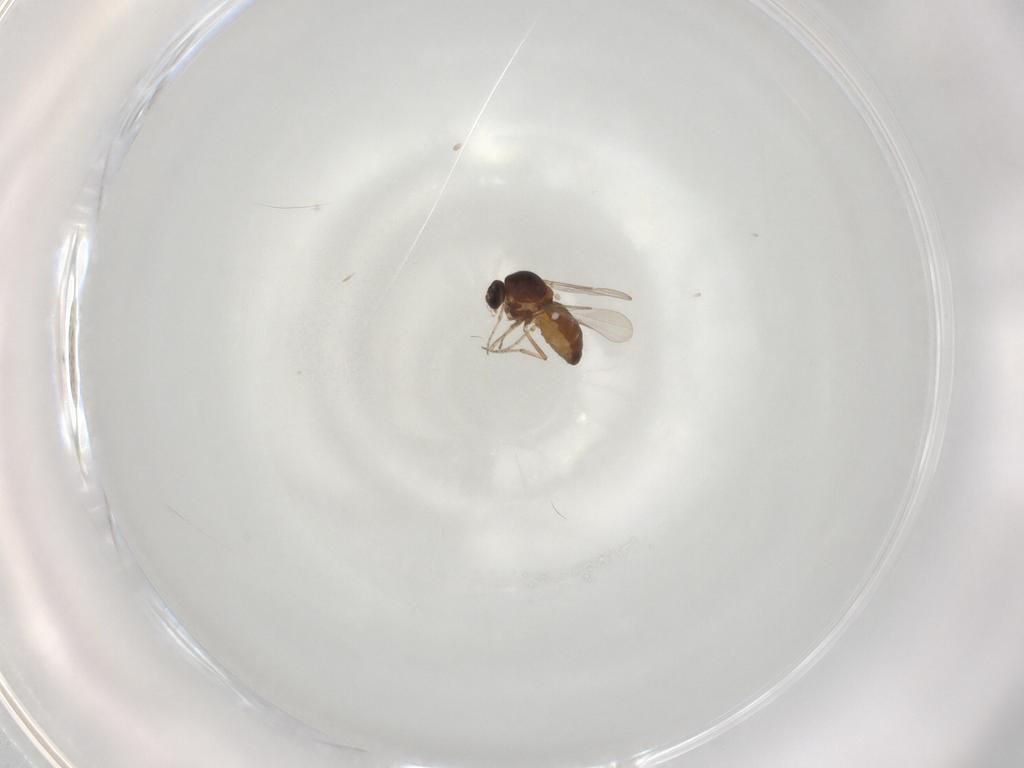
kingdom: Animalia
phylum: Arthropoda
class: Insecta
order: Diptera
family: Ceratopogonidae
